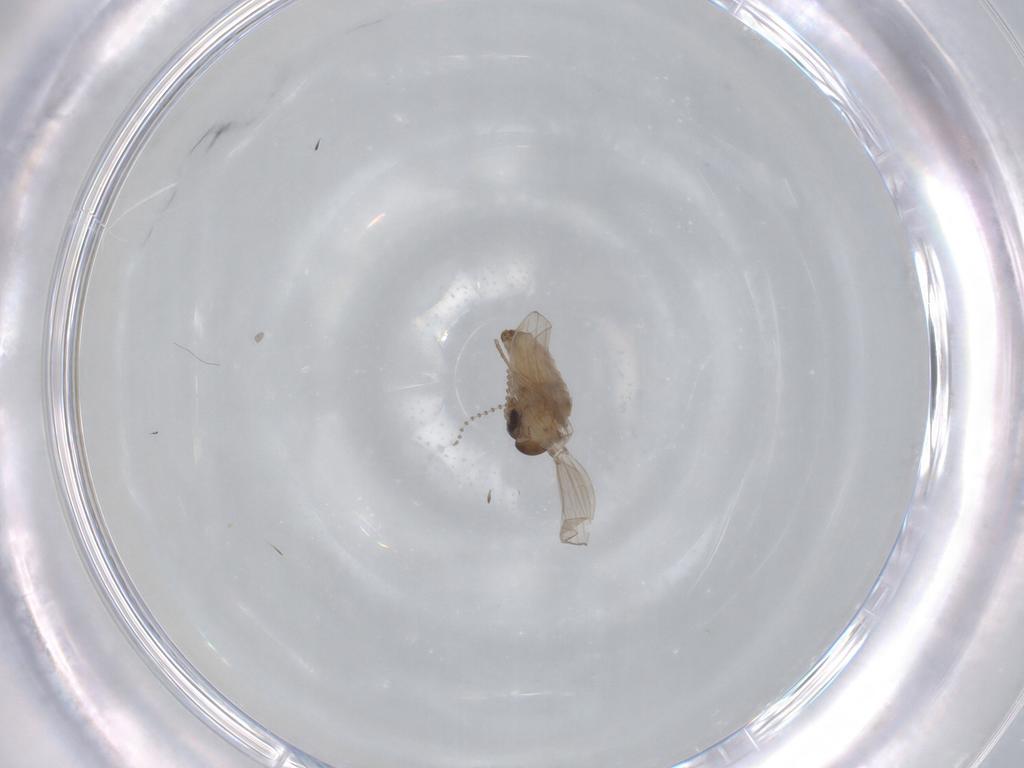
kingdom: Animalia
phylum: Arthropoda
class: Insecta
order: Diptera
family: Psychodidae
